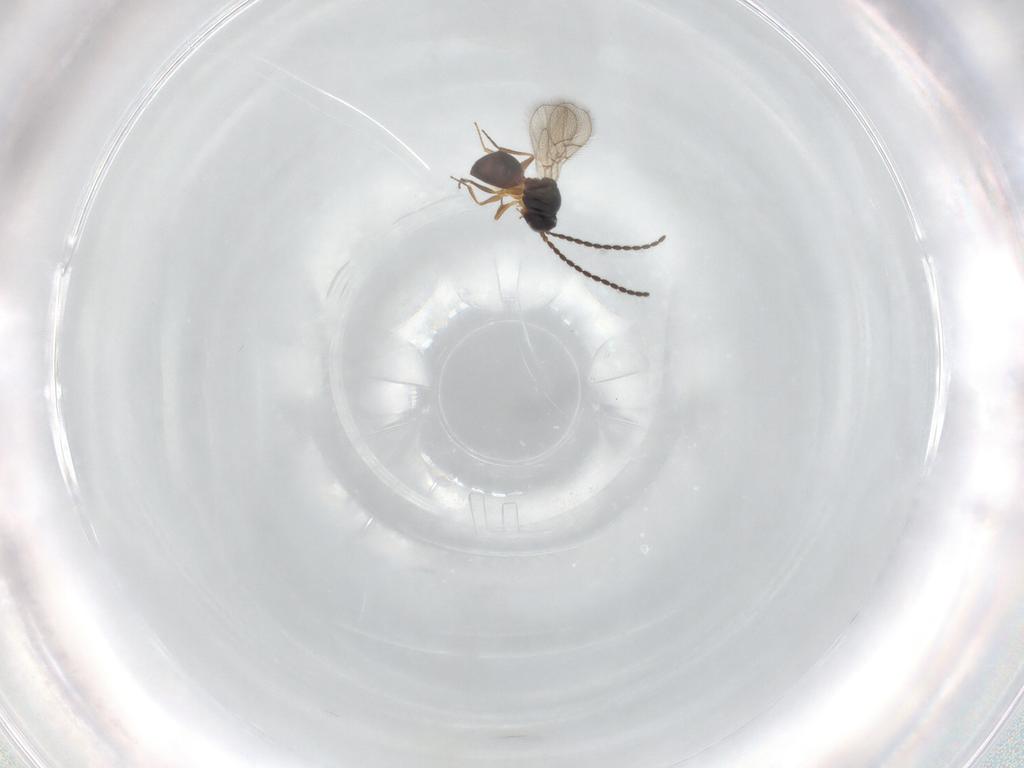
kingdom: Animalia
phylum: Arthropoda
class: Insecta
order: Hymenoptera
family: Figitidae
